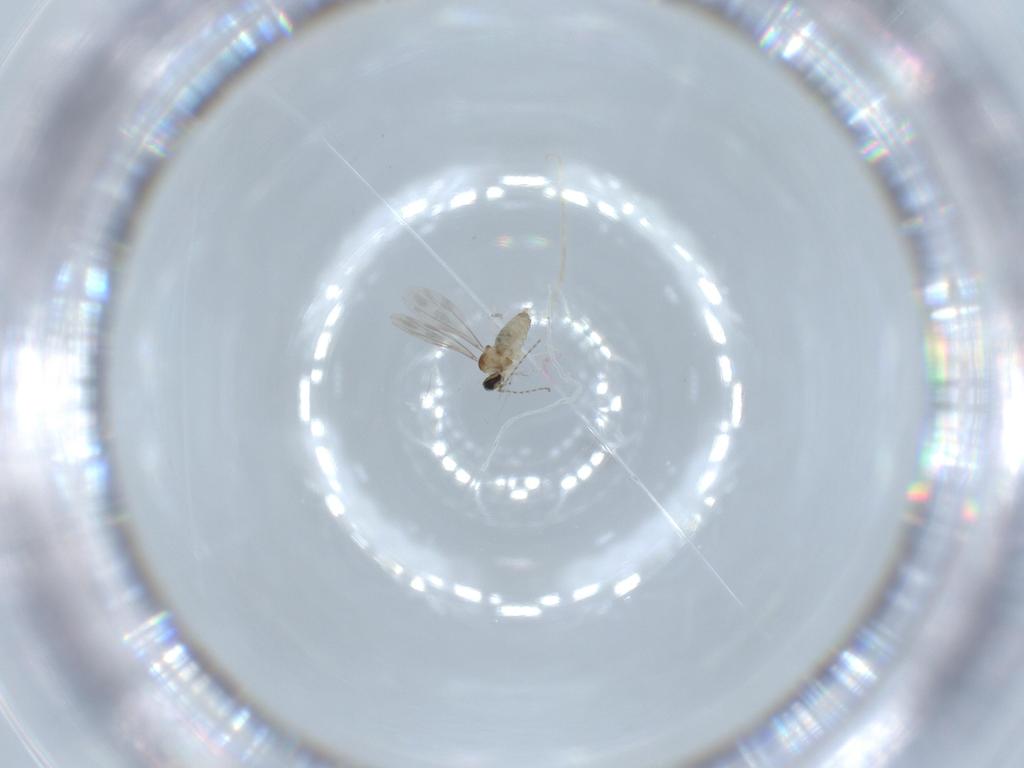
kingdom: Animalia
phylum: Arthropoda
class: Insecta
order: Diptera
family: Cecidomyiidae
